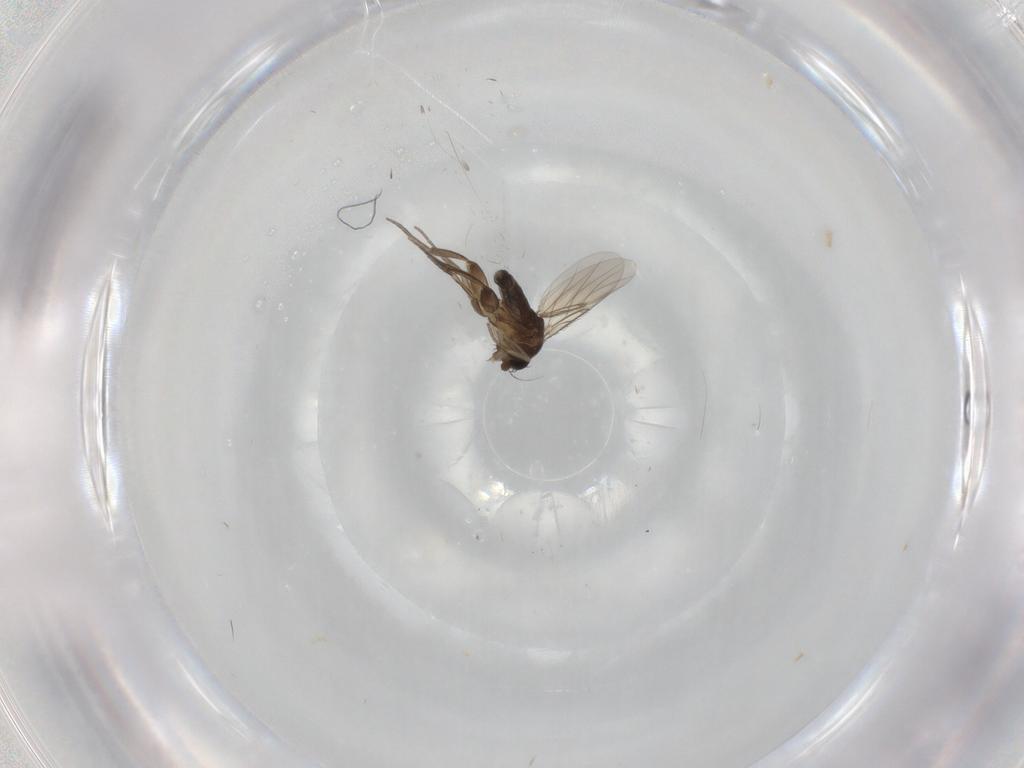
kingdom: Animalia
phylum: Arthropoda
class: Insecta
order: Diptera
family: Phoridae
